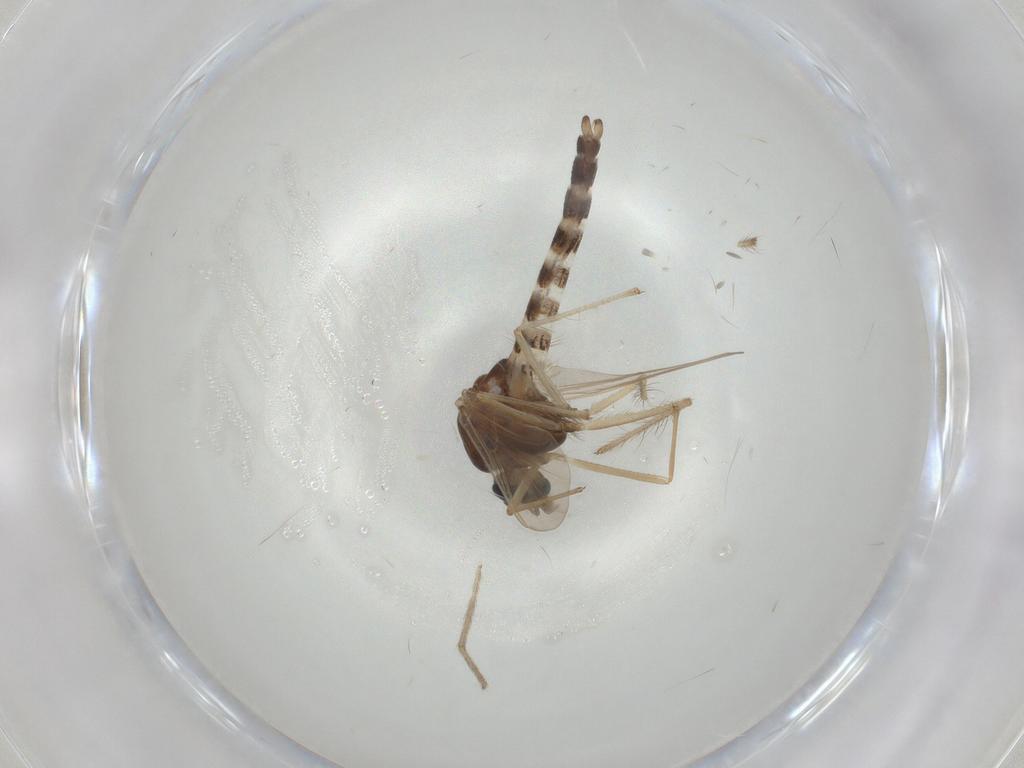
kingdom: Animalia
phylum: Arthropoda
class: Insecta
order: Diptera
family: Chironomidae
